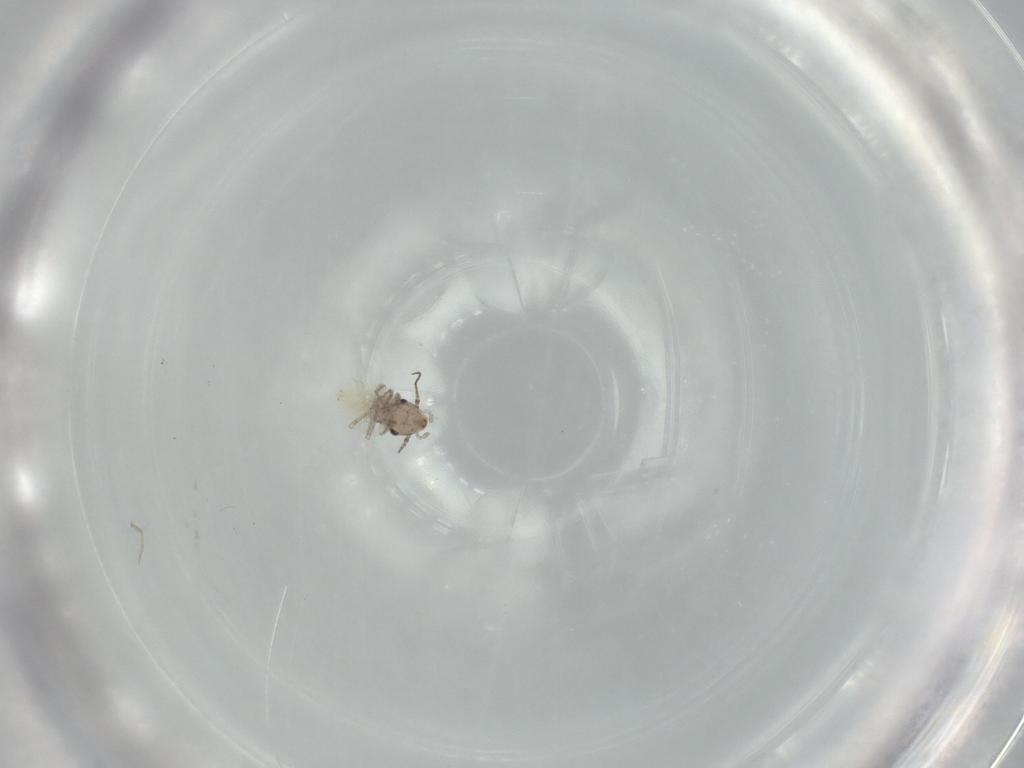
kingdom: Animalia
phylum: Arthropoda
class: Insecta
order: Psocodea
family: Lepidopsocidae
